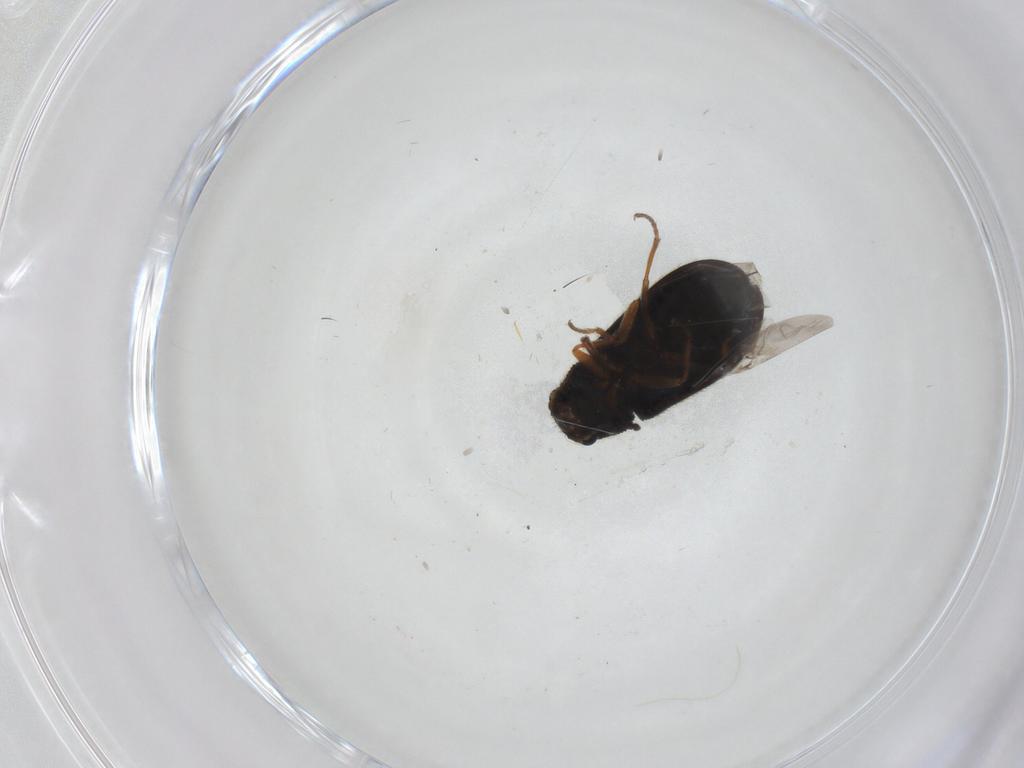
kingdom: Animalia
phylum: Arthropoda
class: Insecta
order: Coleoptera
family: Melyridae
